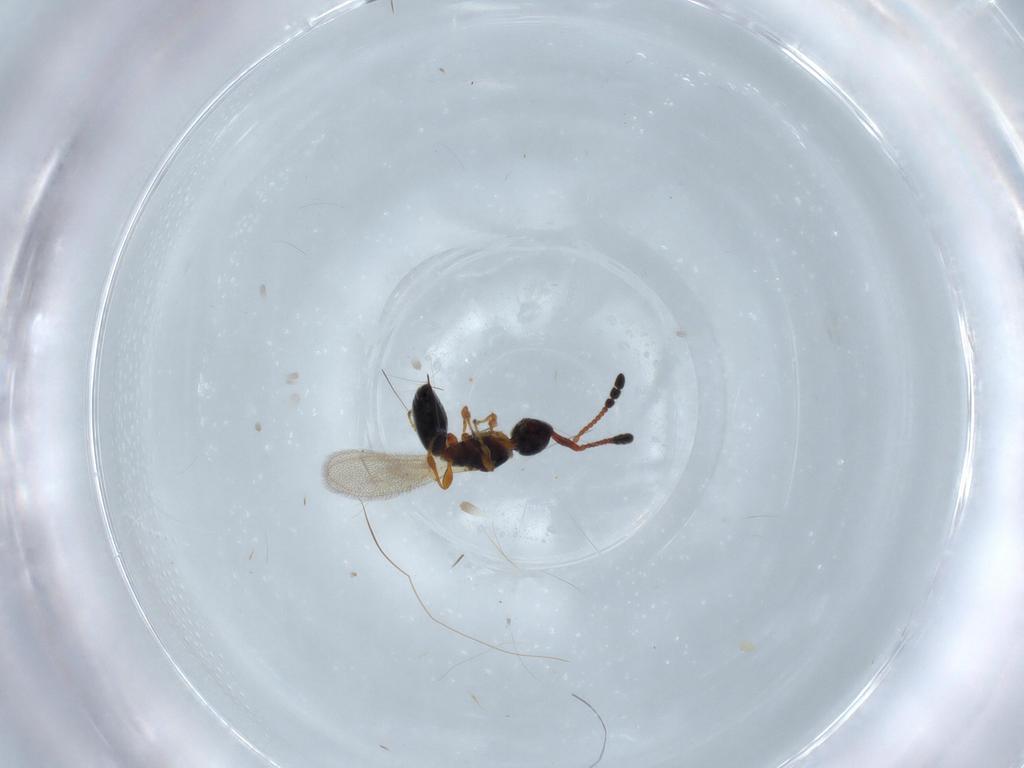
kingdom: Animalia
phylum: Arthropoda
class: Insecta
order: Hymenoptera
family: Diapriidae
